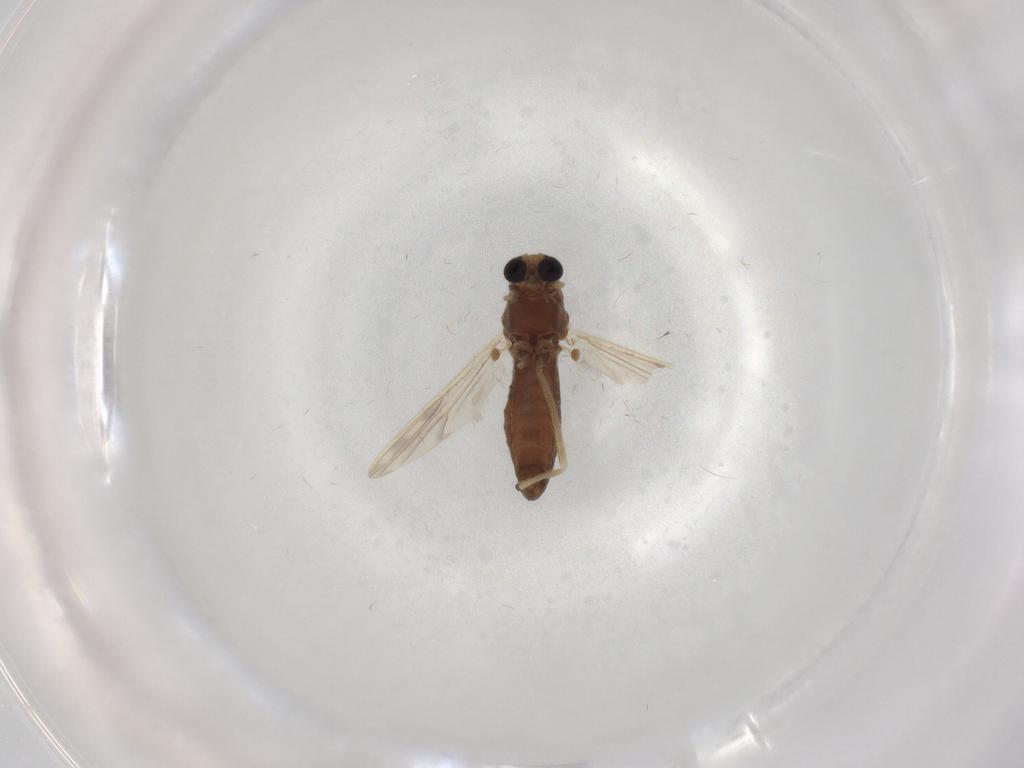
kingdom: Animalia
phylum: Arthropoda
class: Insecta
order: Diptera
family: Chironomidae
